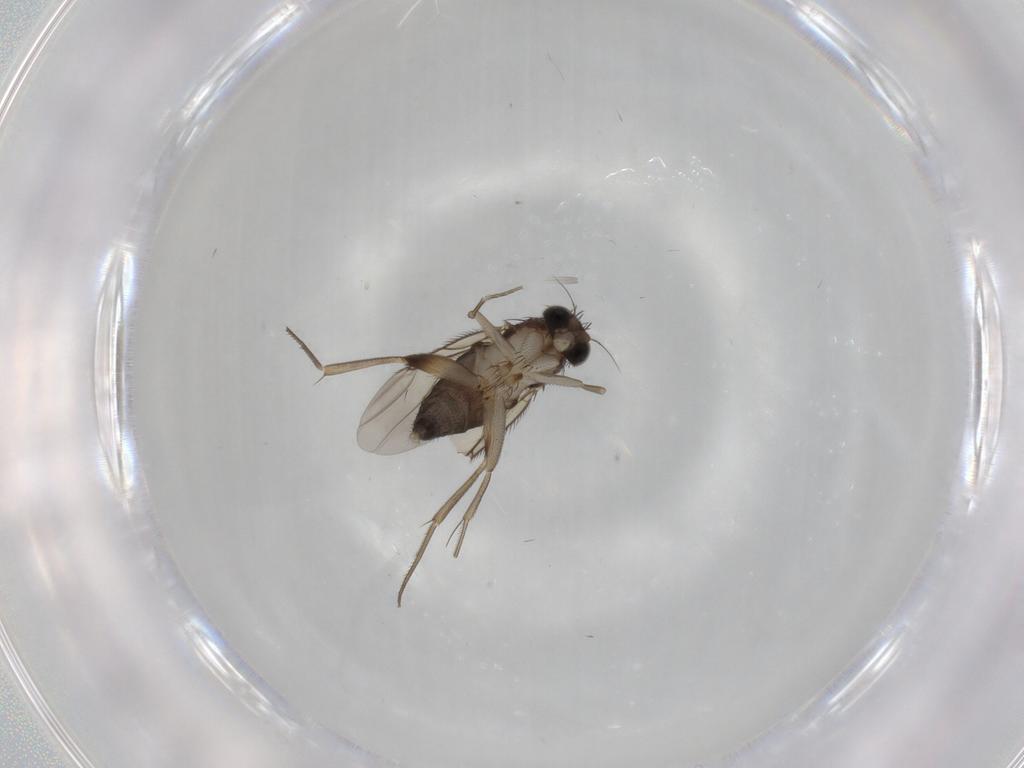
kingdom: Animalia
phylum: Arthropoda
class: Insecta
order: Diptera
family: Phoridae
